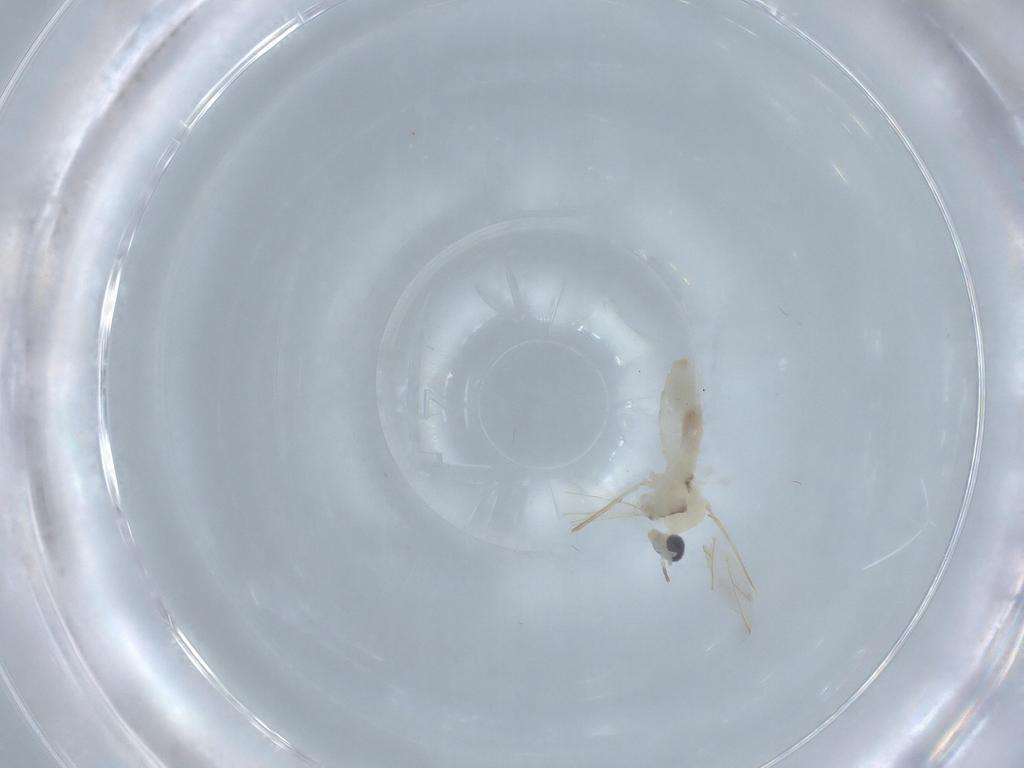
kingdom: Animalia
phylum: Arthropoda
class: Insecta
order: Diptera
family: Cecidomyiidae
